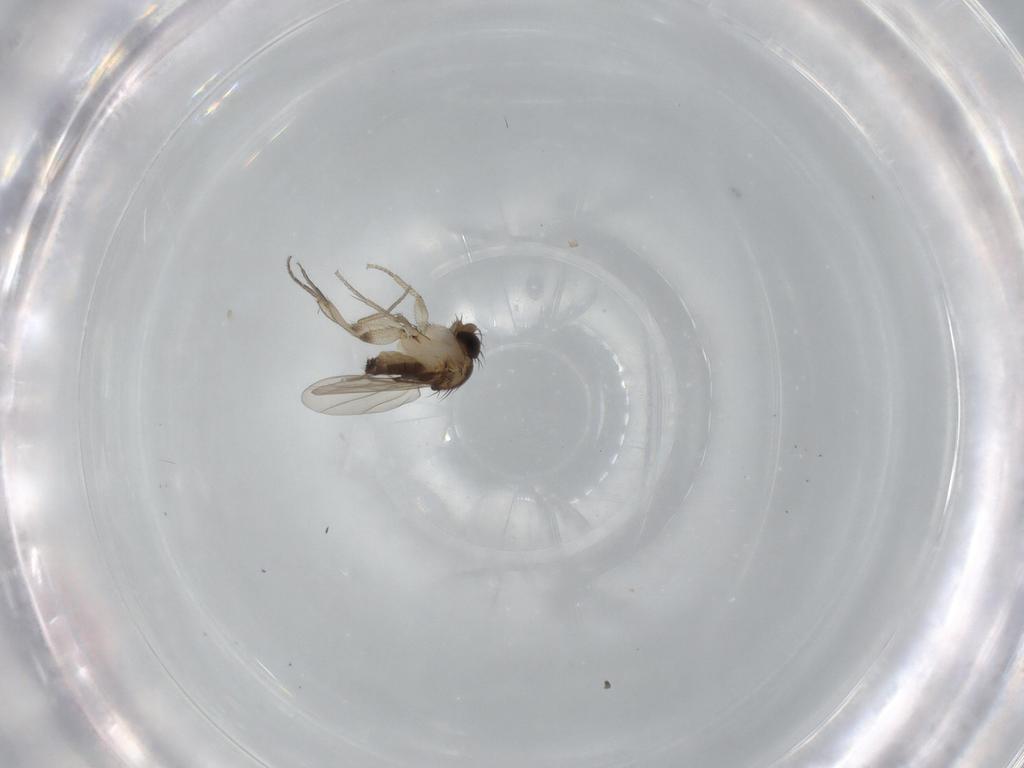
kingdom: Animalia
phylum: Arthropoda
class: Insecta
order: Diptera
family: Phoridae
